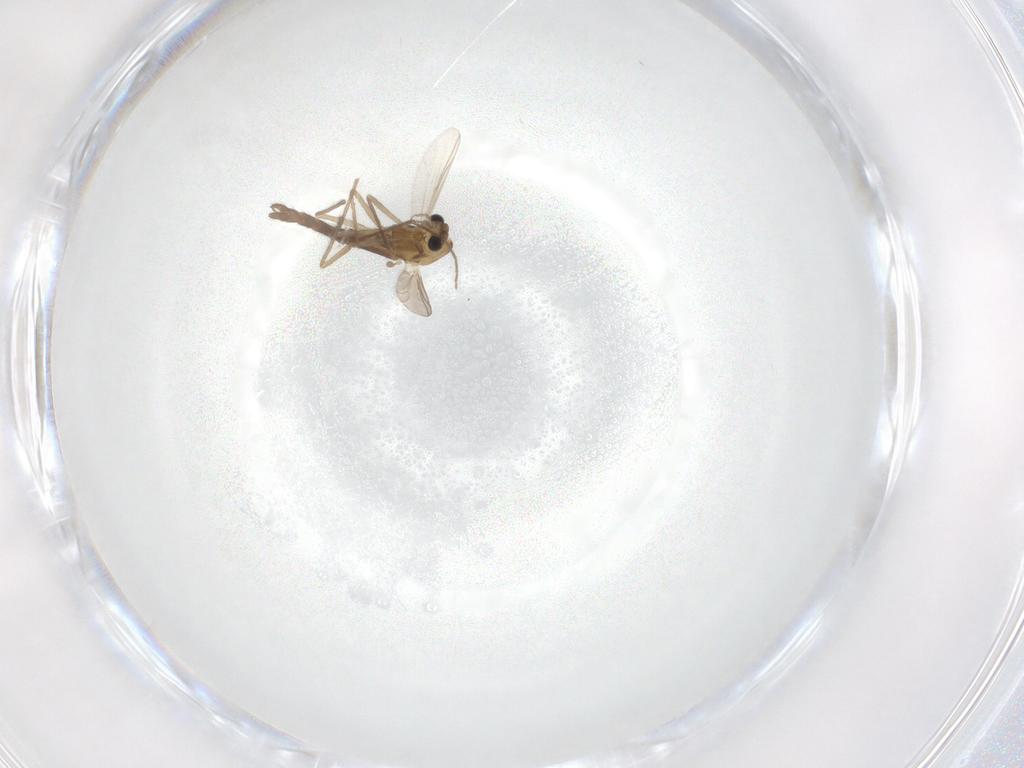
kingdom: Animalia
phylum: Arthropoda
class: Insecta
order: Diptera
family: Chironomidae
